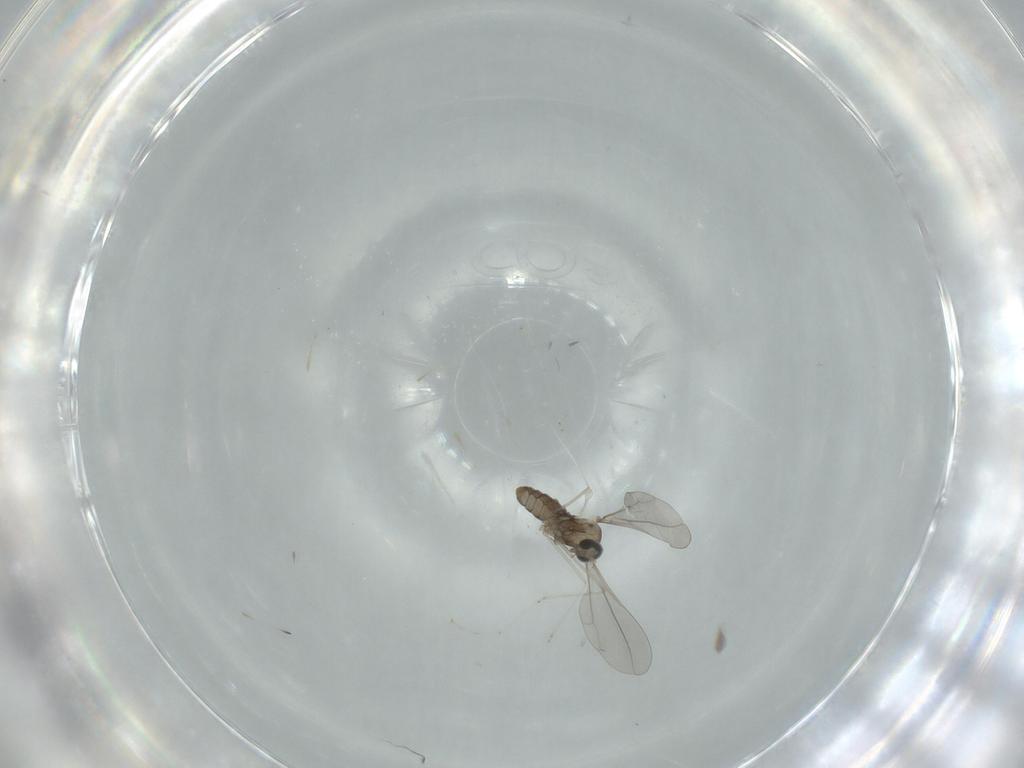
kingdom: Animalia
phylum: Arthropoda
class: Insecta
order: Diptera
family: Cecidomyiidae
